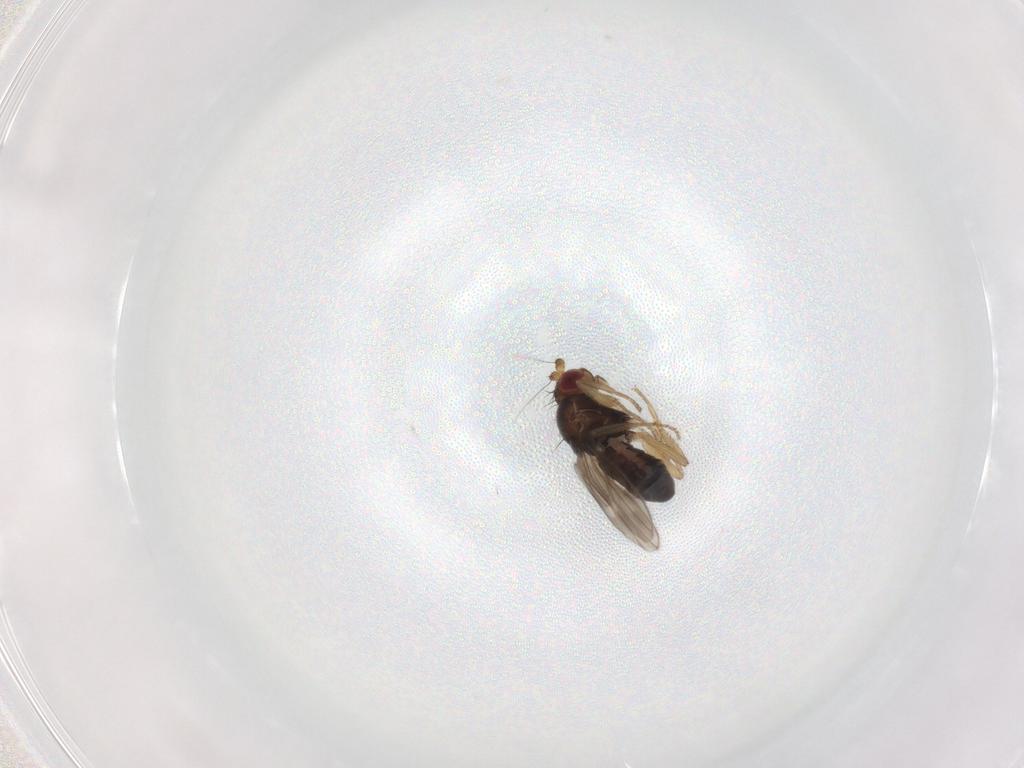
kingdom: Animalia
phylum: Arthropoda
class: Insecta
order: Diptera
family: Sphaeroceridae
